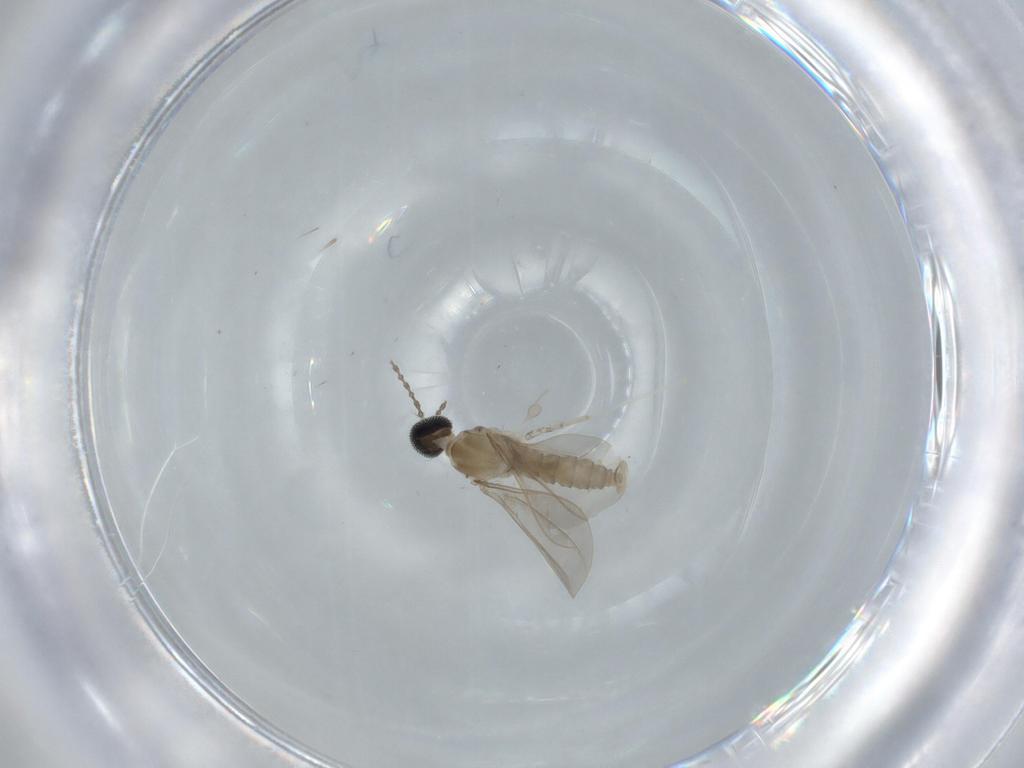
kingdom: Animalia
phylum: Arthropoda
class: Insecta
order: Diptera
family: Cecidomyiidae
